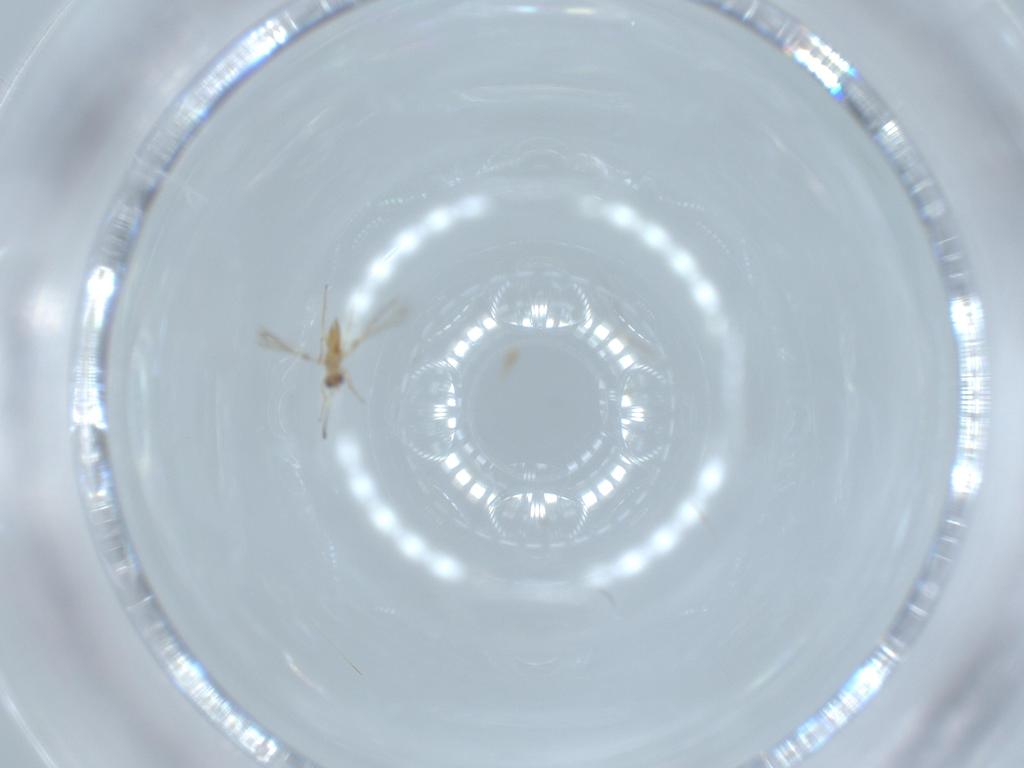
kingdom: Animalia
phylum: Arthropoda
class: Insecta
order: Hymenoptera
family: Mymaridae
